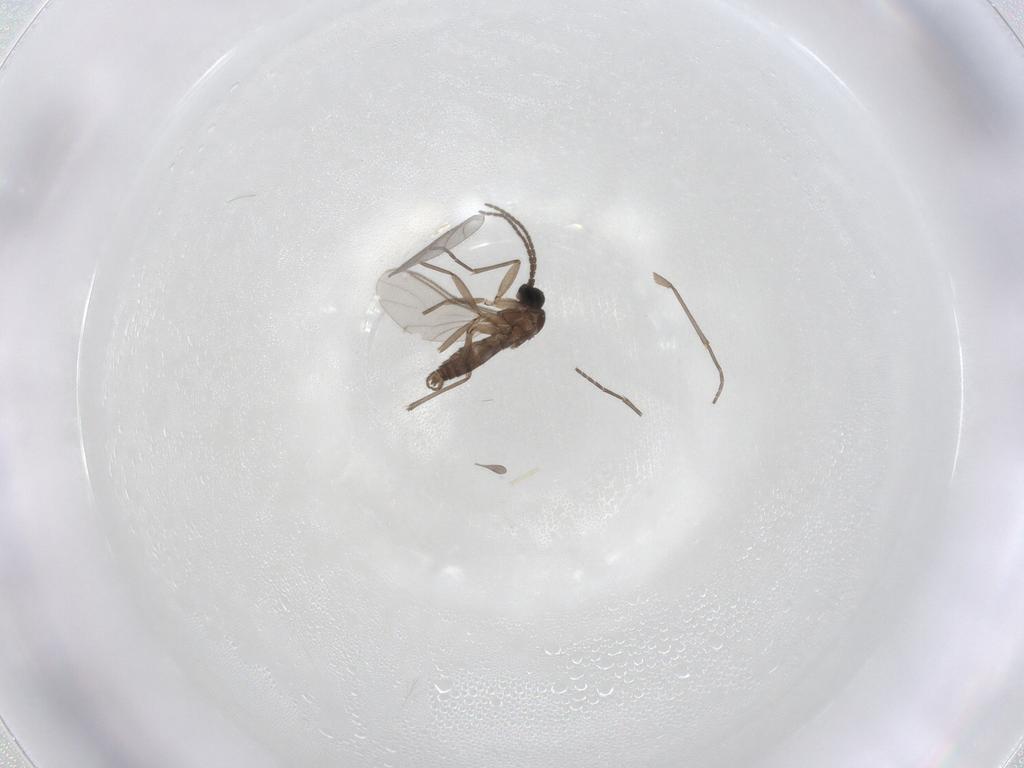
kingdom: Animalia
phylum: Arthropoda
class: Insecta
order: Diptera
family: Sciaridae
